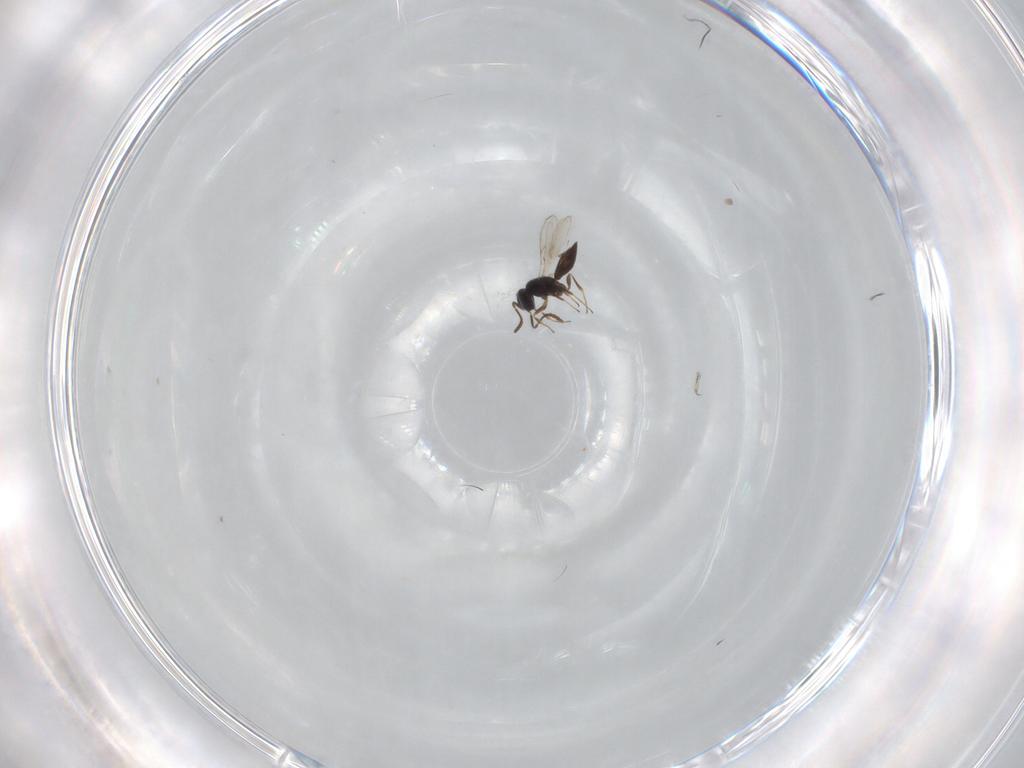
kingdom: Animalia
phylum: Arthropoda
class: Insecta
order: Hymenoptera
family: Scelionidae
